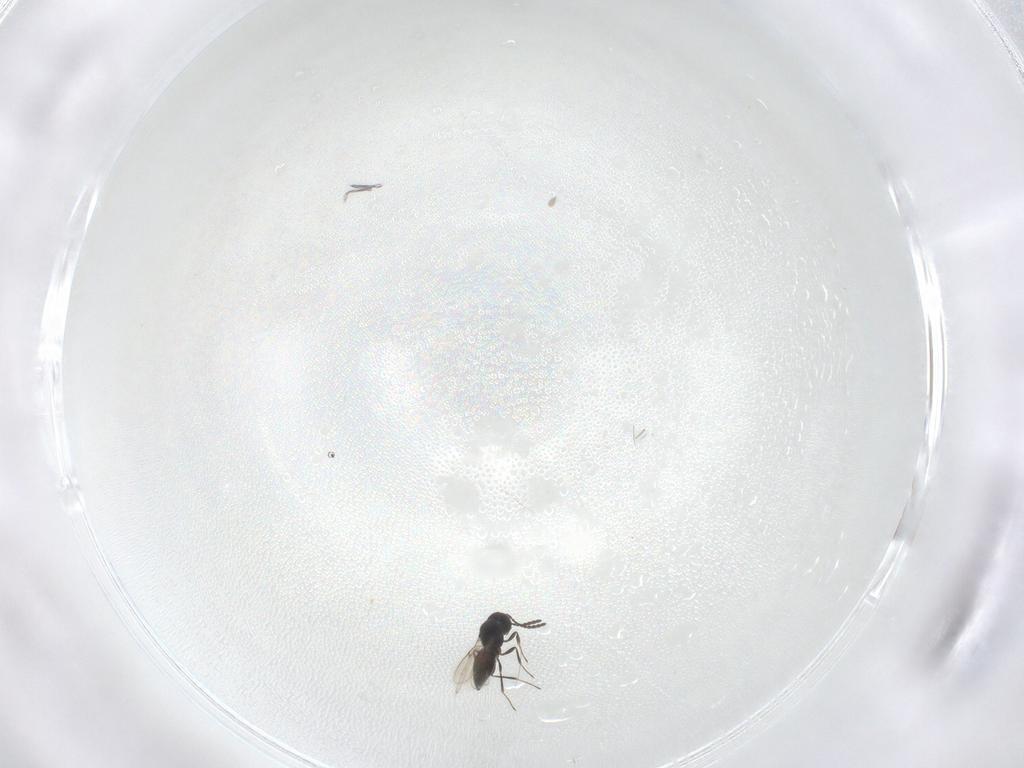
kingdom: Animalia
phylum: Arthropoda
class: Insecta
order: Hymenoptera
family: Scelionidae
